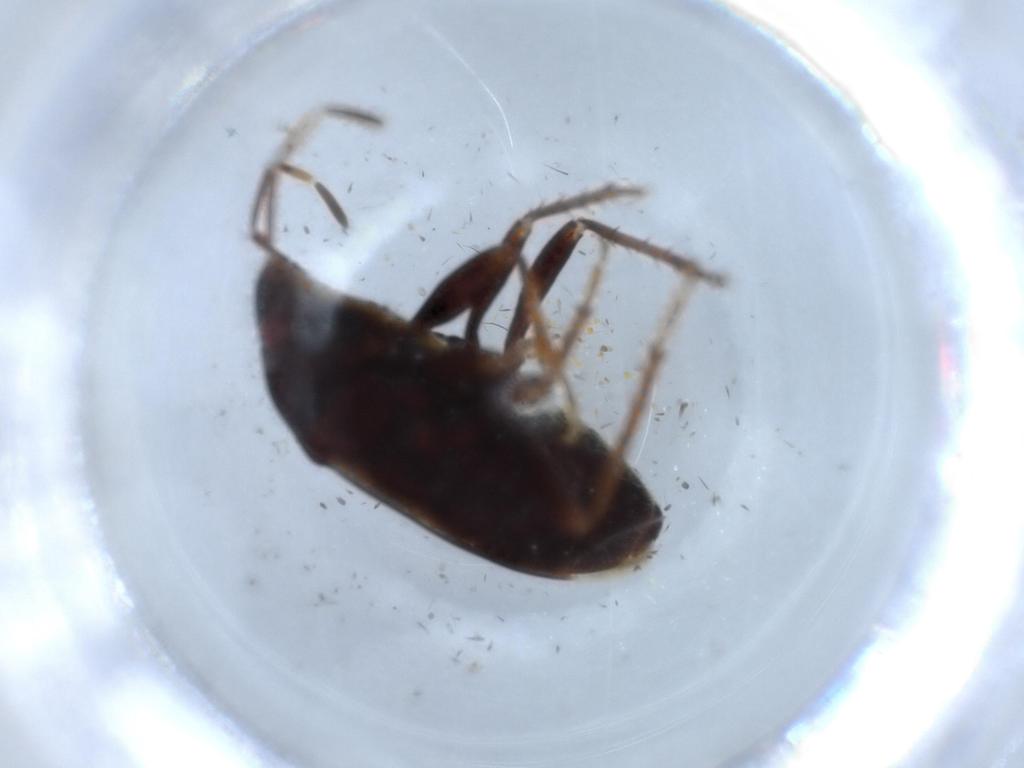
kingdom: Animalia
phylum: Arthropoda
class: Insecta
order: Hemiptera
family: Rhyparochromidae
